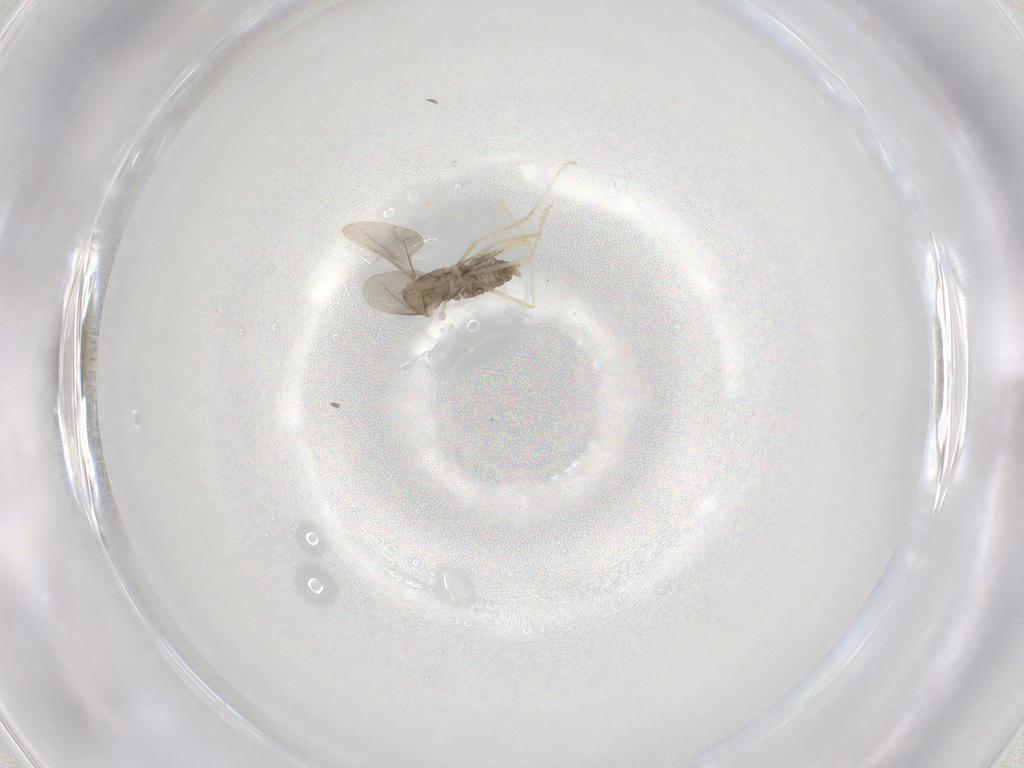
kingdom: Animalia
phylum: Arthropoda
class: Insecta
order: Diptera
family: Cecidomyiidae
